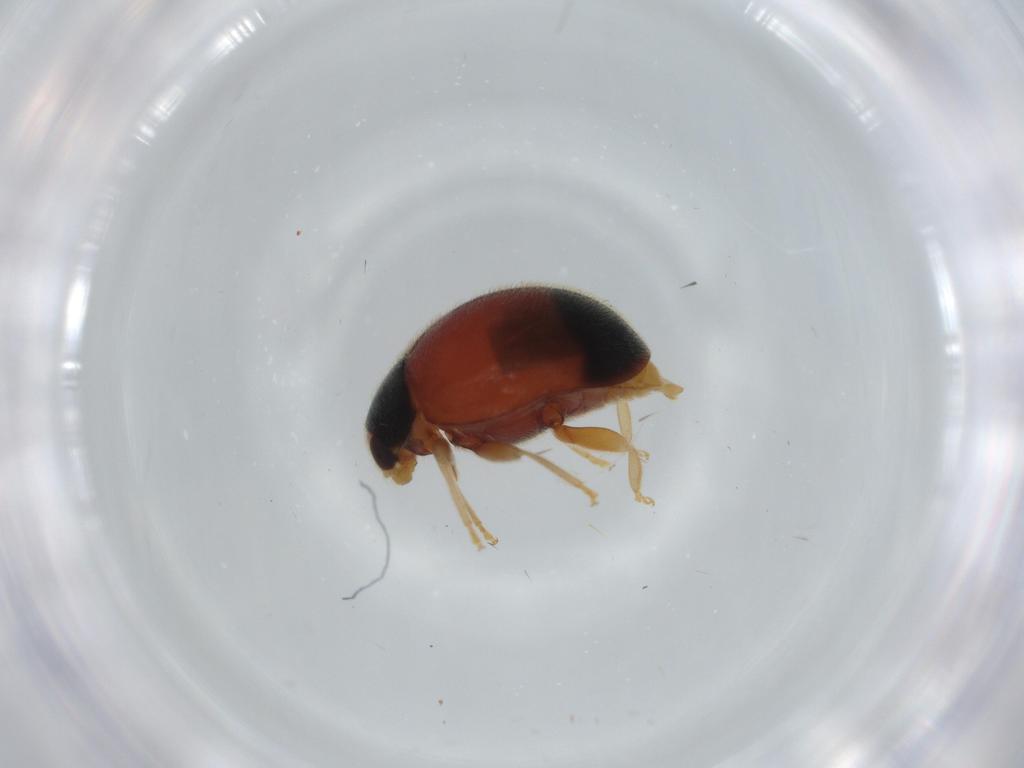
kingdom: Animalia
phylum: Arthropoda
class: Insecta
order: Coleoptera
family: Coccinellidae
